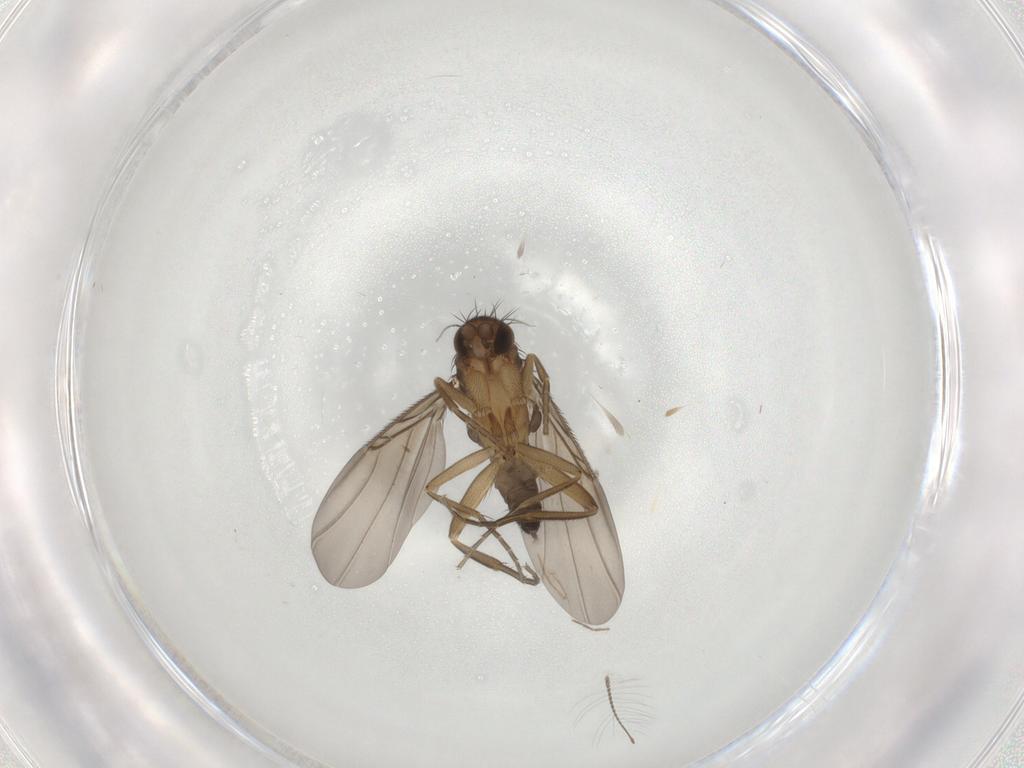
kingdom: Animalia
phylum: Arthropoda
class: Insecta
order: Diptera
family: Phoridae
